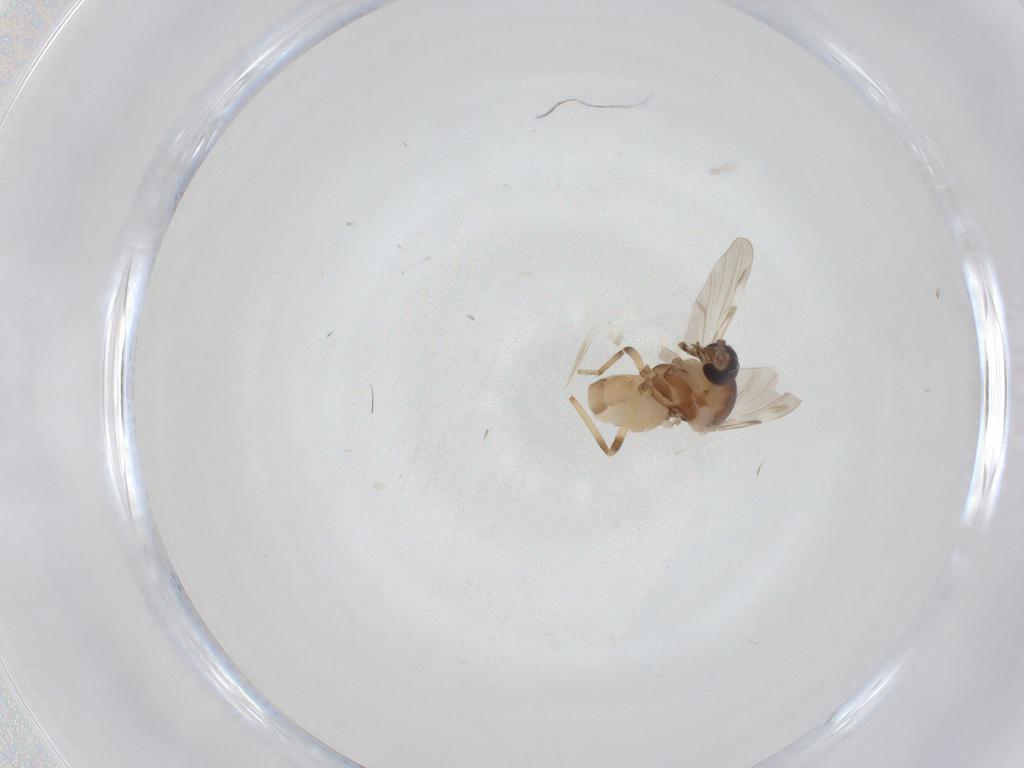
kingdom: Animalia
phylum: Arthropoda
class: Insecta
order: Diptera
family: Ceratopogonidae
